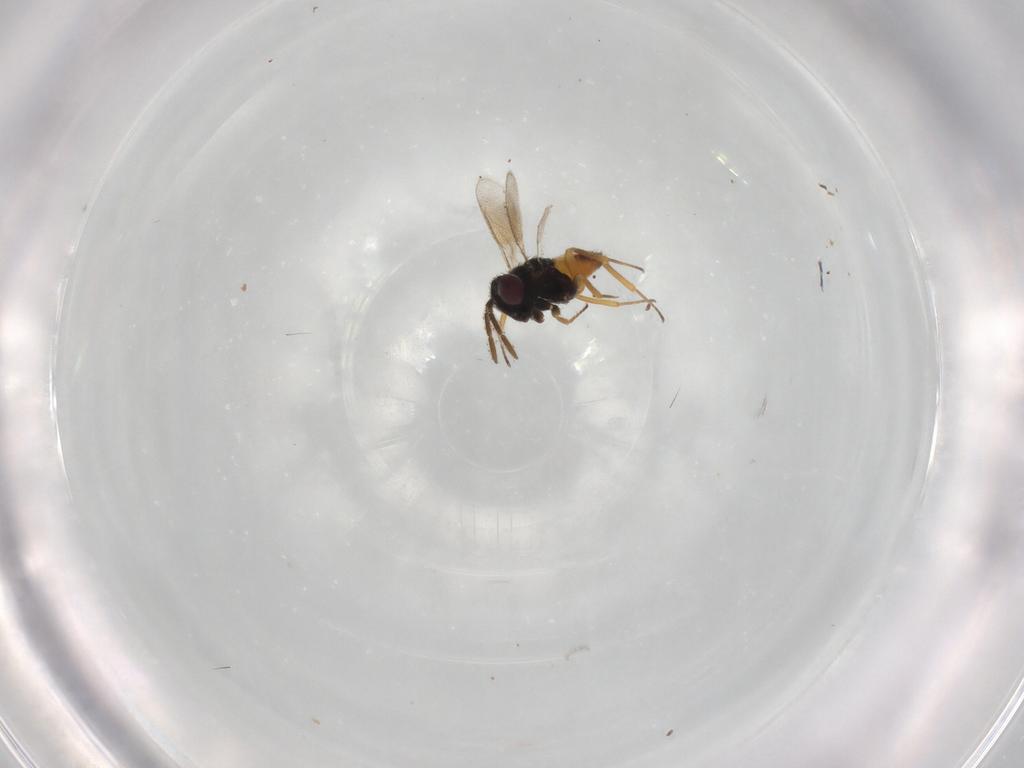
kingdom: Animalia
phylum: Arthropoda
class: Insecta
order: Hymenoptera
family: Aphelinidae
